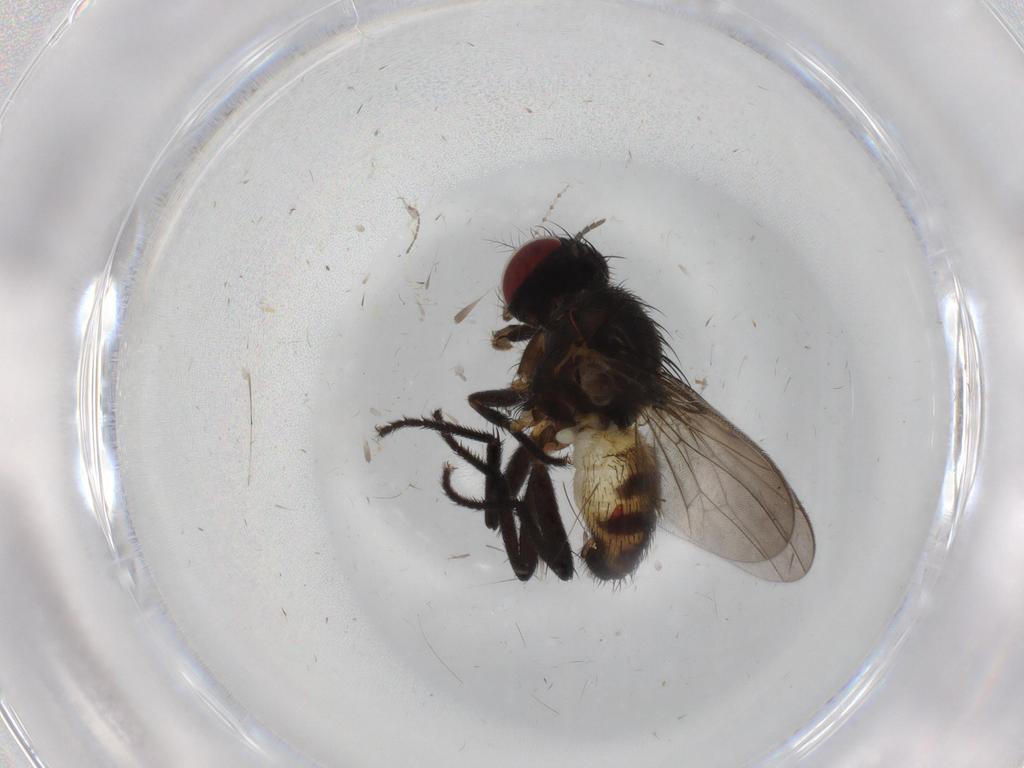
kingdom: Animalia
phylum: Arthropoda
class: Insecta
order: Diptera
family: Anthomyiidae
